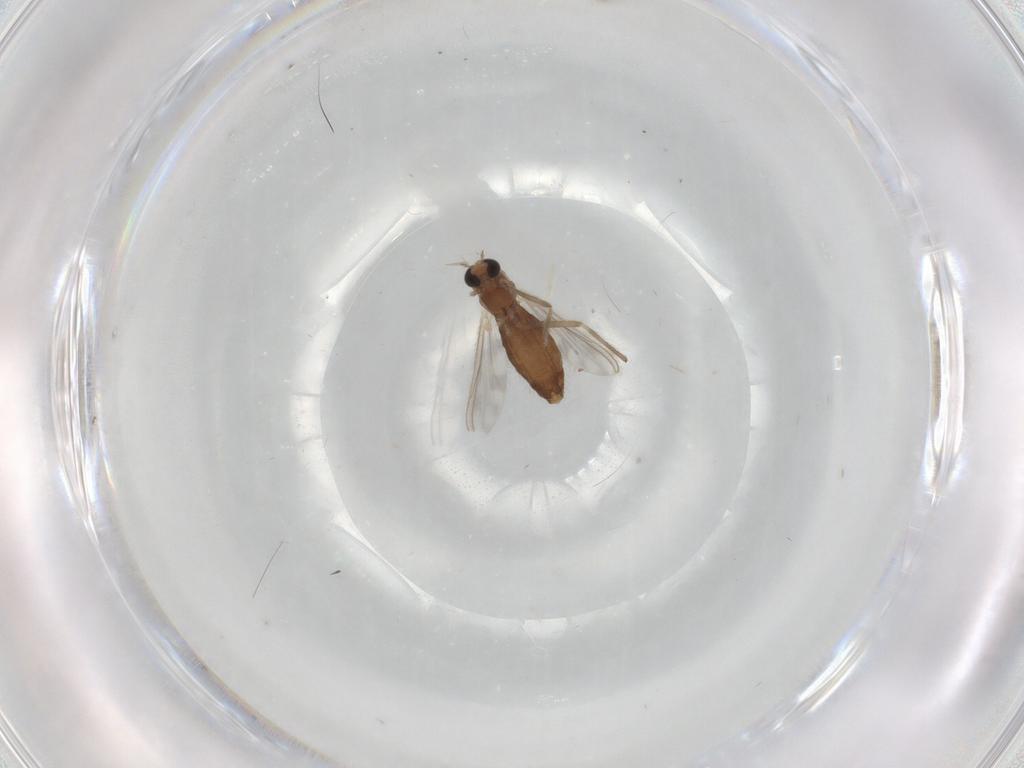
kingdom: Animalia
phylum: Arthropoda
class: Insecta
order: Diptera
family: Chironomidae
